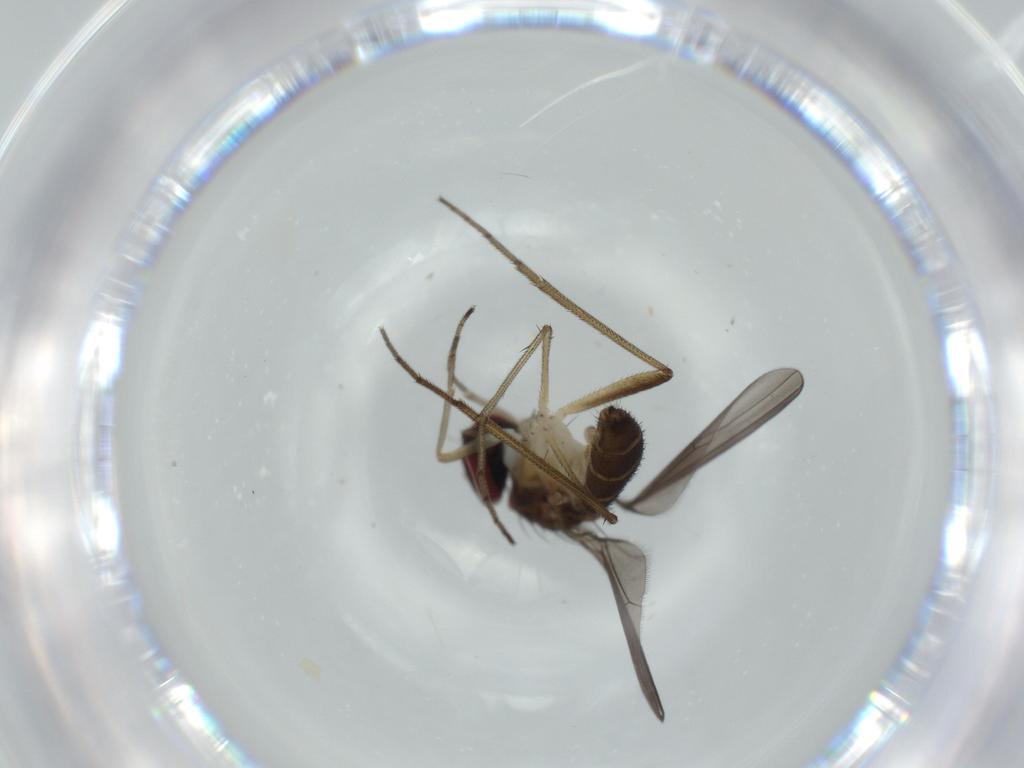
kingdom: Animalia
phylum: Arthropoda
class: Insecta
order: Diptera
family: Dolichopodidae
